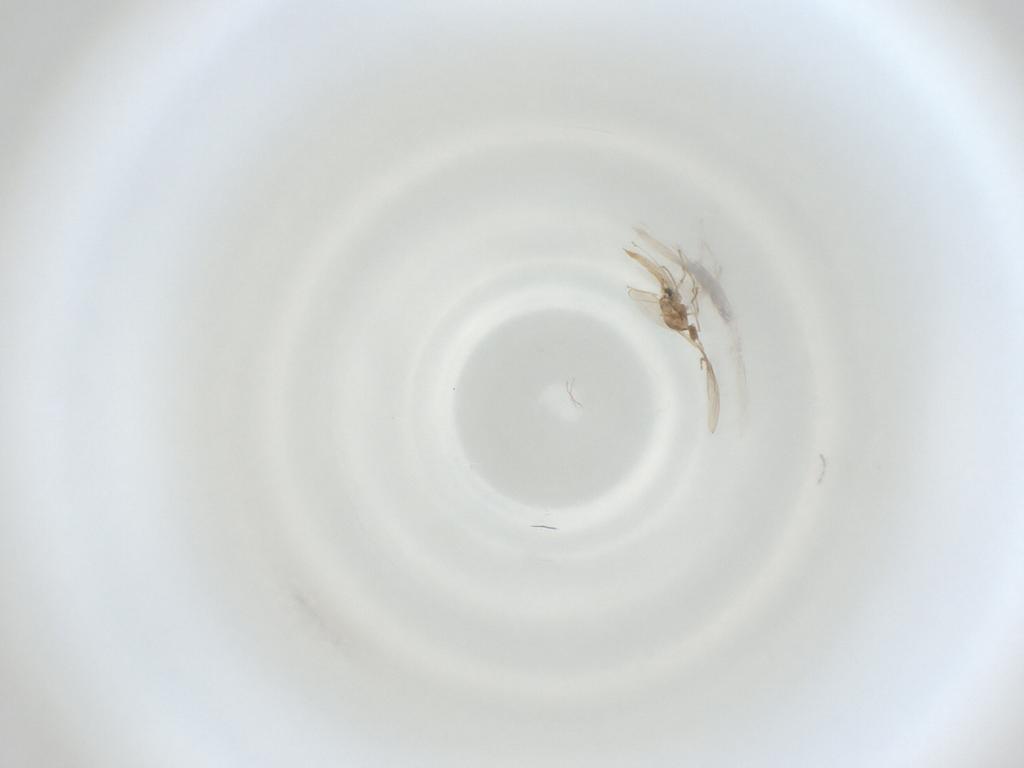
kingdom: Animalia
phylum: Arthropoda
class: Insecta
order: Diptera
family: Cecidomyiidae
